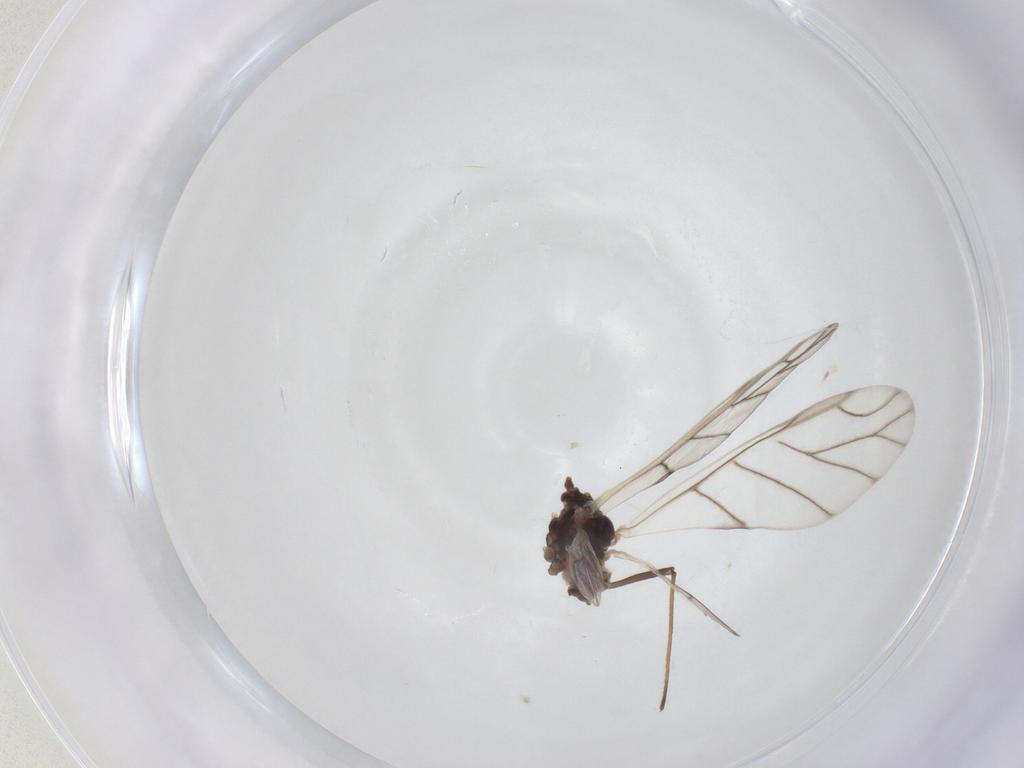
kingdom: Animalia
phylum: Arthropoda
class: Insecta
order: Hemiptera
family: Aphididae
